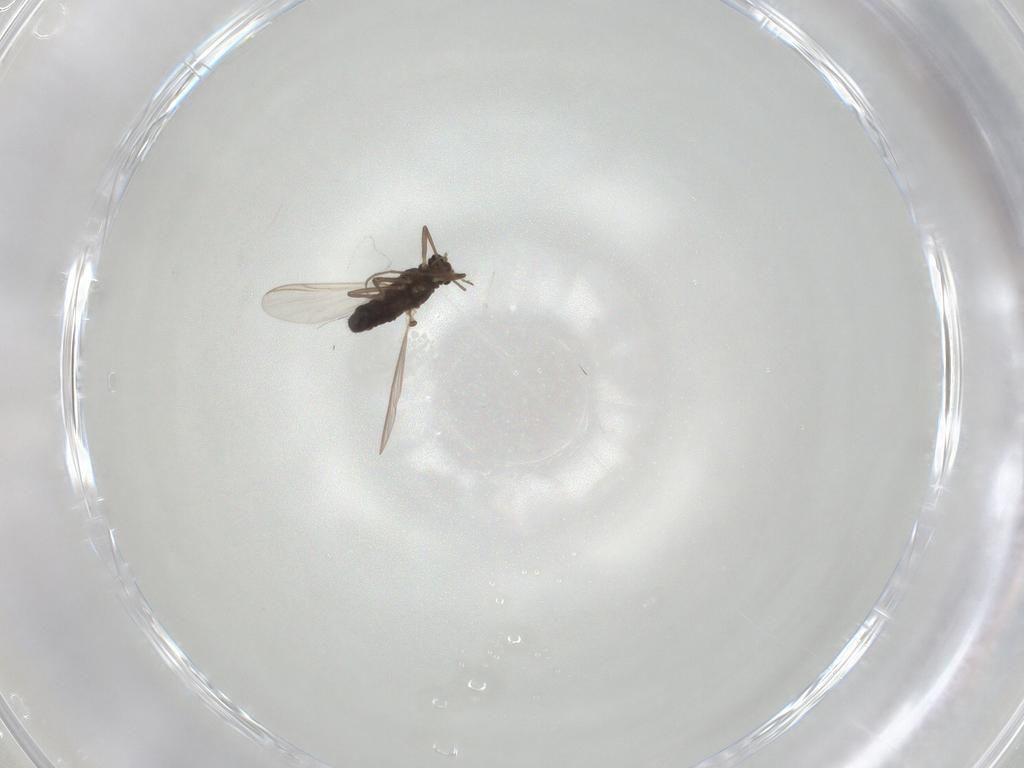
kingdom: Animalia
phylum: Arthropoda
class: Insecta
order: Diptera
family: Chironomidae
